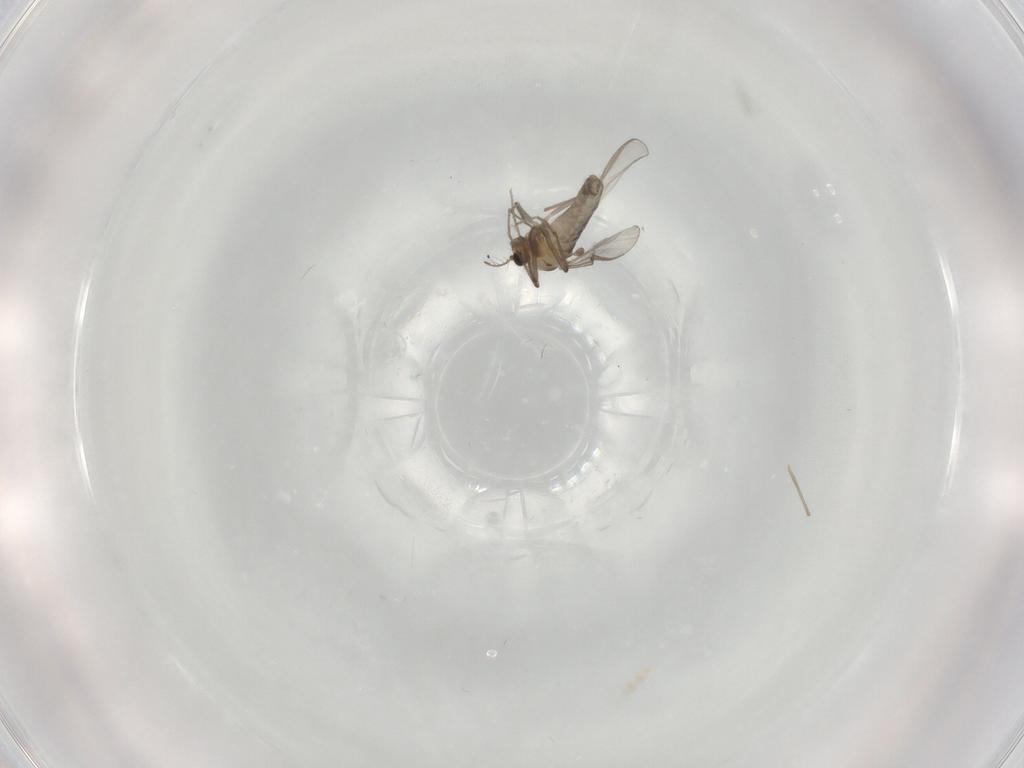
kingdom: Animalia
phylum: Arthropoda
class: Insecta
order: Diptera
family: Chironomidae
